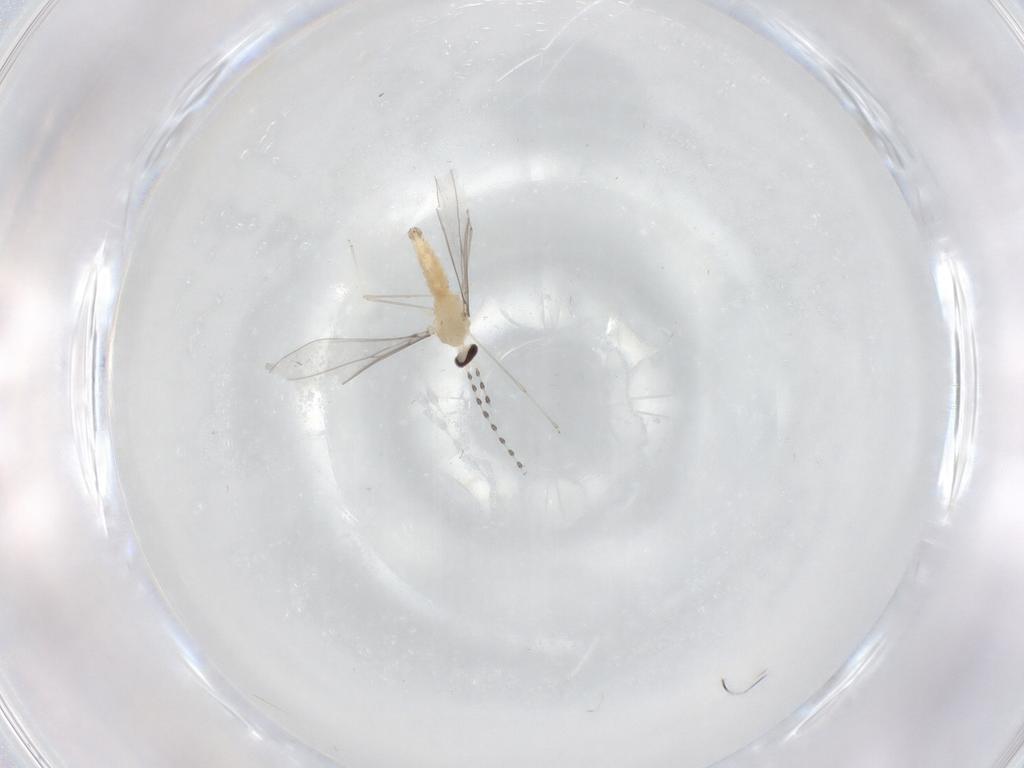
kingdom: Animalia
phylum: Arthropoda
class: Insecta
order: Diptera
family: Cecidomyiidae
